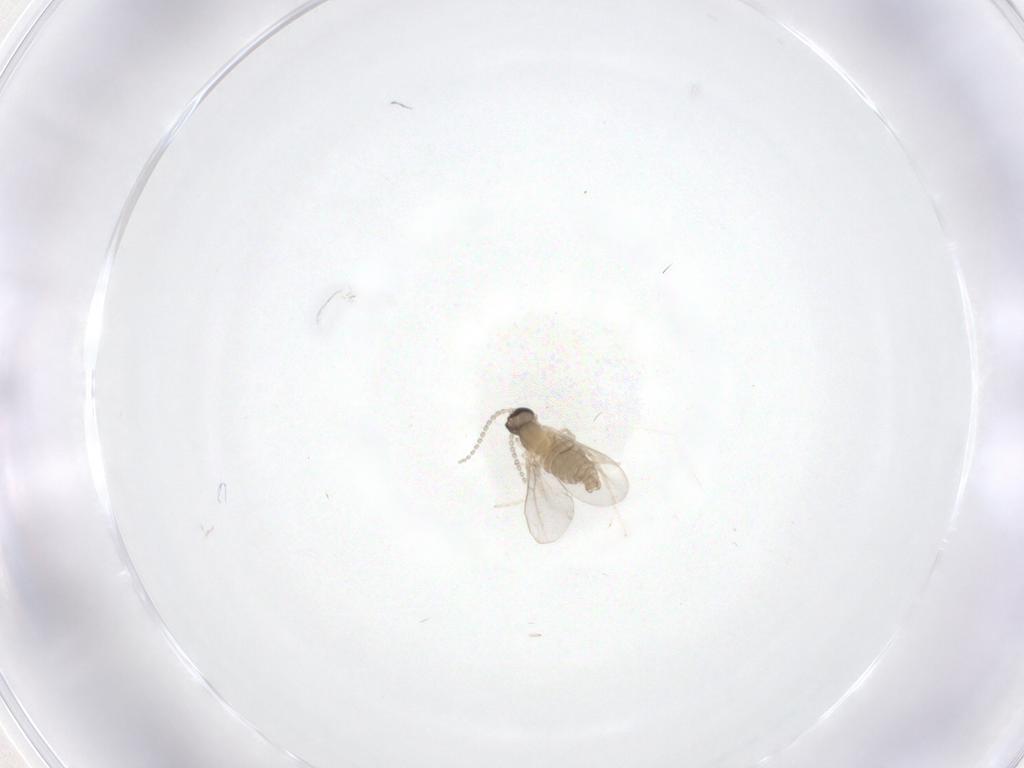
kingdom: Animalia
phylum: Arthropoda
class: Insecta
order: Diptera
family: Cecidomyiidae
